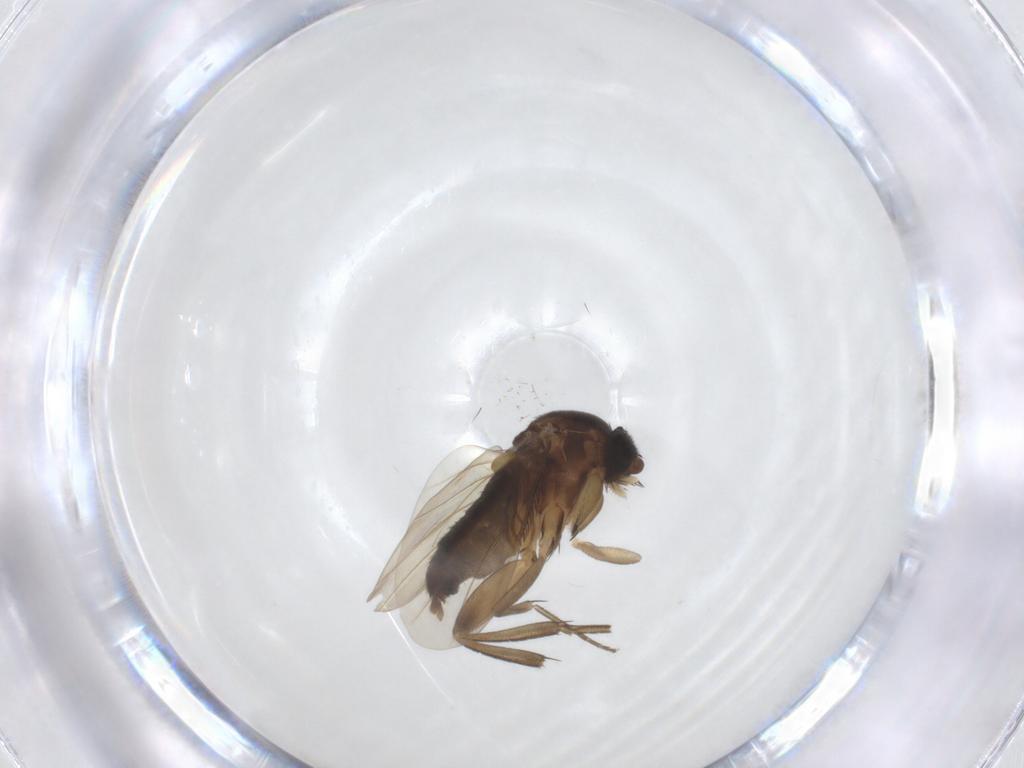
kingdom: Animalia
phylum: Arthropoda
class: Insecta
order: Diptera
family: Phoridae
